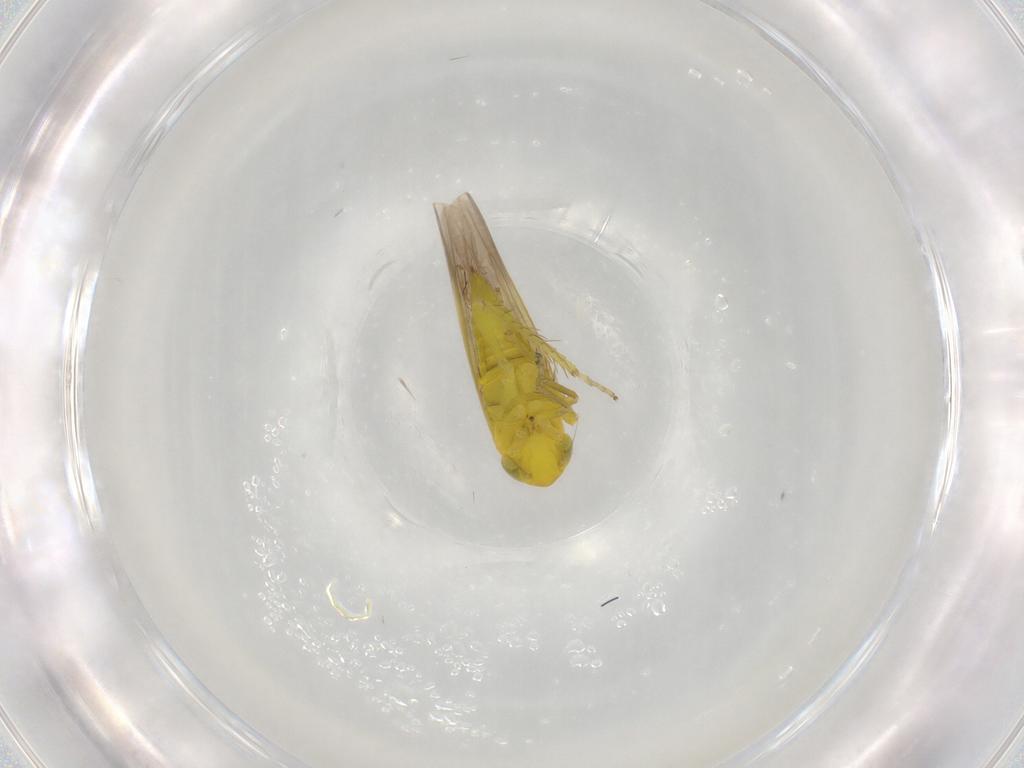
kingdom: Animalia
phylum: Arthropoda
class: Insecta
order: Hemiptera
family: Cicadellidae
